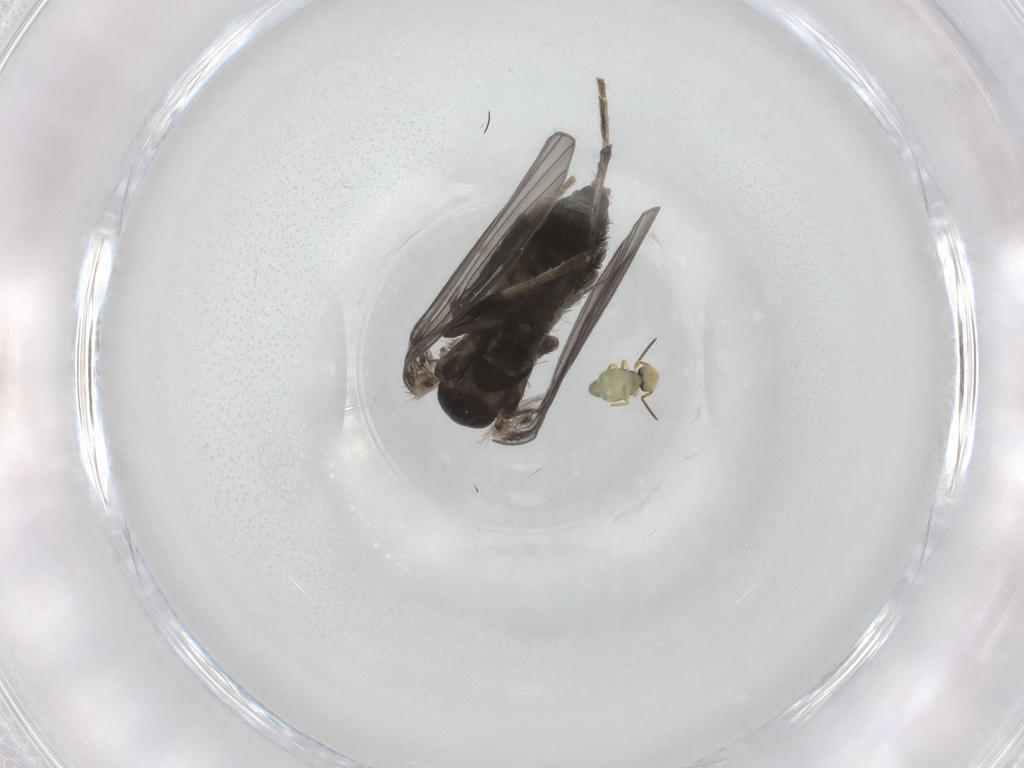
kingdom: Animalia
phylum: Arthropoda
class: Insecta
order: Diptera
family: Psychodidae
